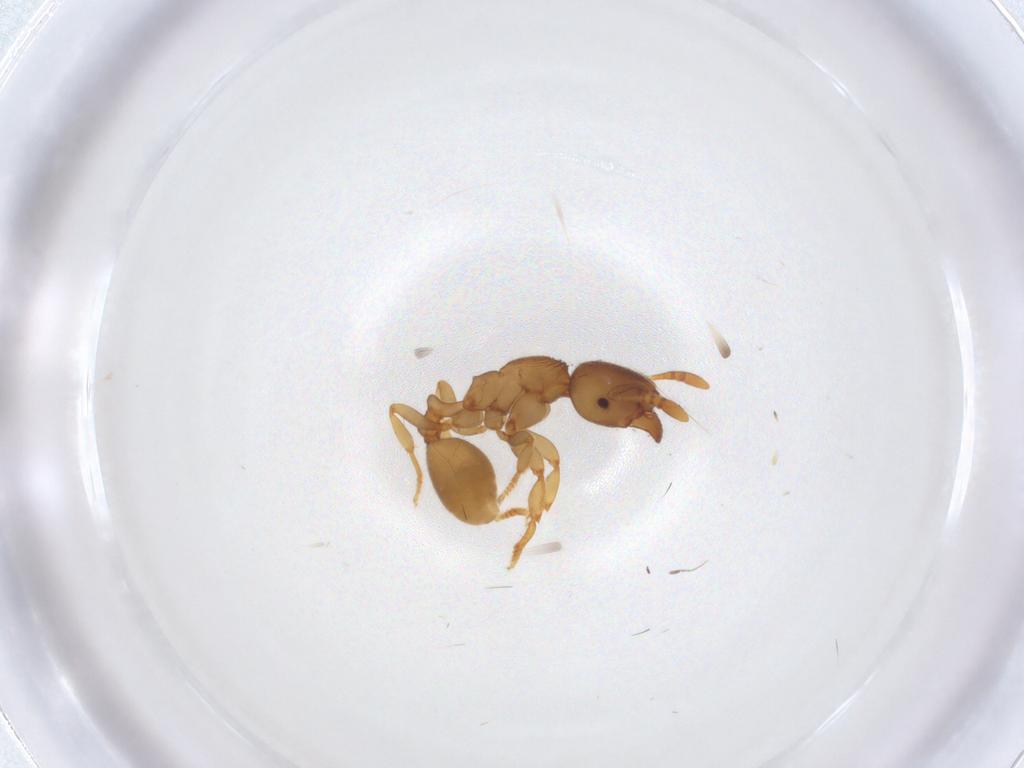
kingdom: Animalia
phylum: Arthropoda
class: Insecta
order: Hymenoptera
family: Formicidae
